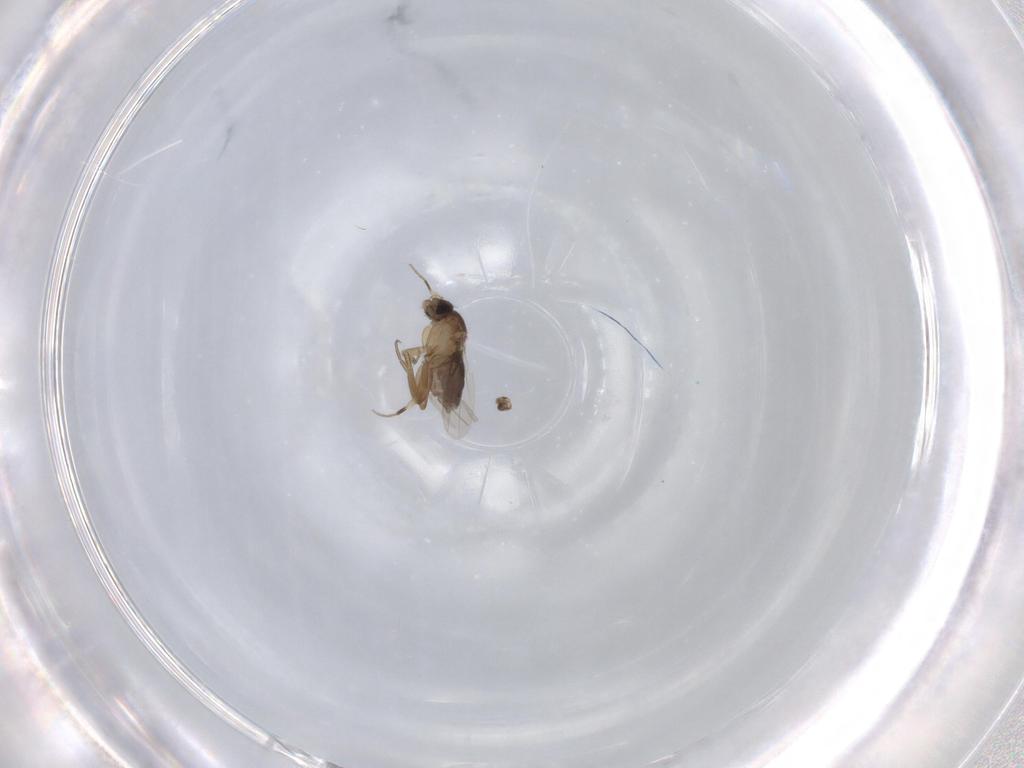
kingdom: Animalia
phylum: Arthropoda
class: Insecta
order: Diptera
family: Phoridae
